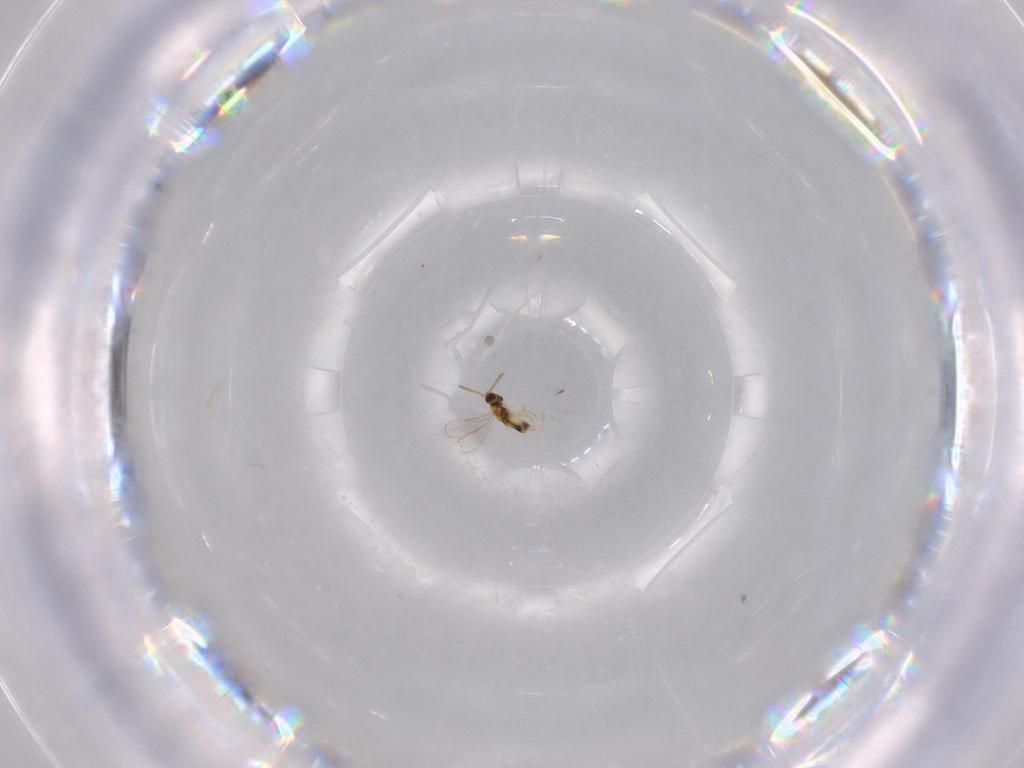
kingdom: Animalia
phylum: Arthropoda
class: Insecta
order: Hymenoptera
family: Aphelinidae
